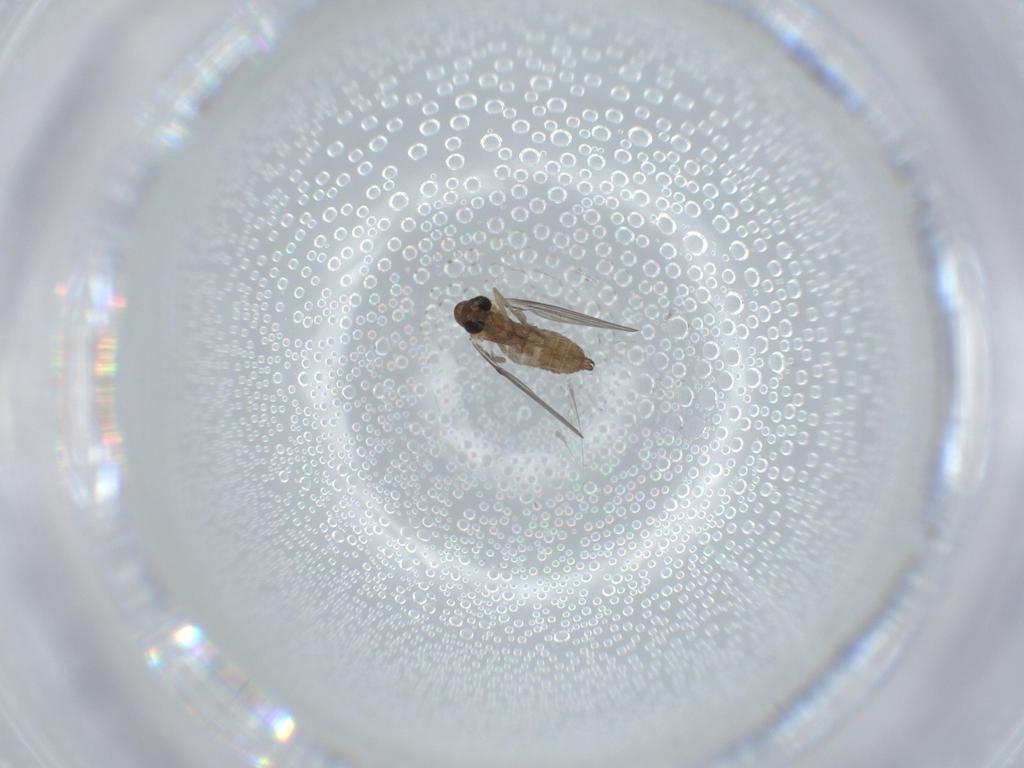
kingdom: Animalia
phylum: Arthropoda
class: Insecta
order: Diptera
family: Psychodidae
